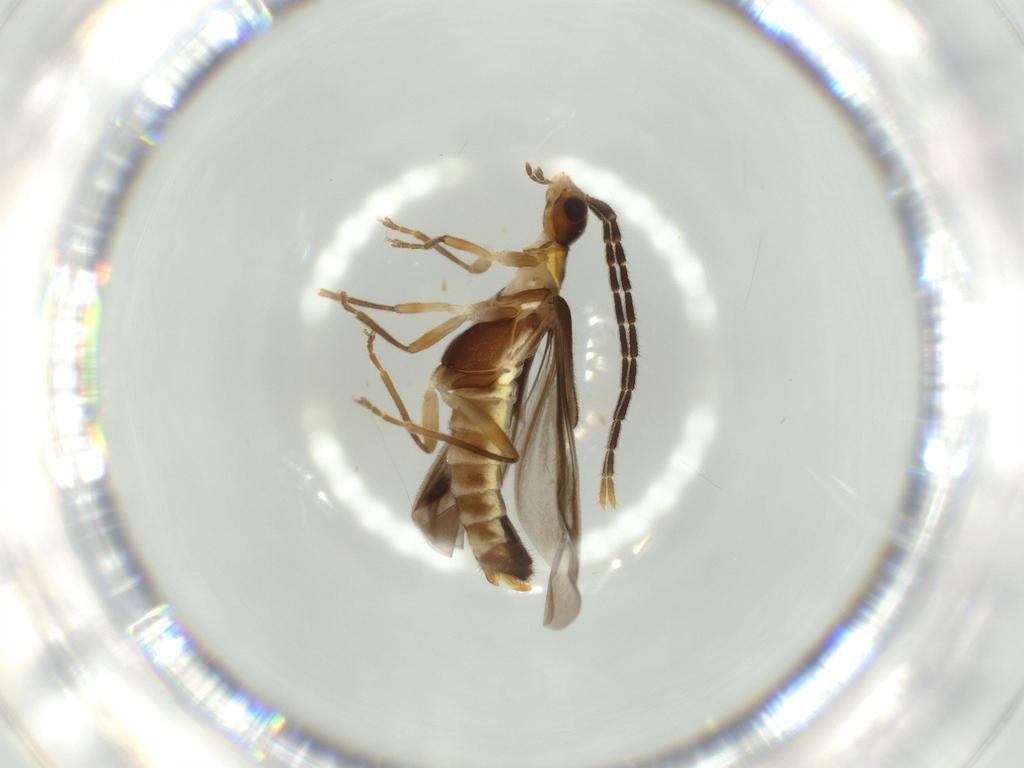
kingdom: Animalia
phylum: Arthropoda
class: Insecta
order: Coleoptera
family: Cantharidae
